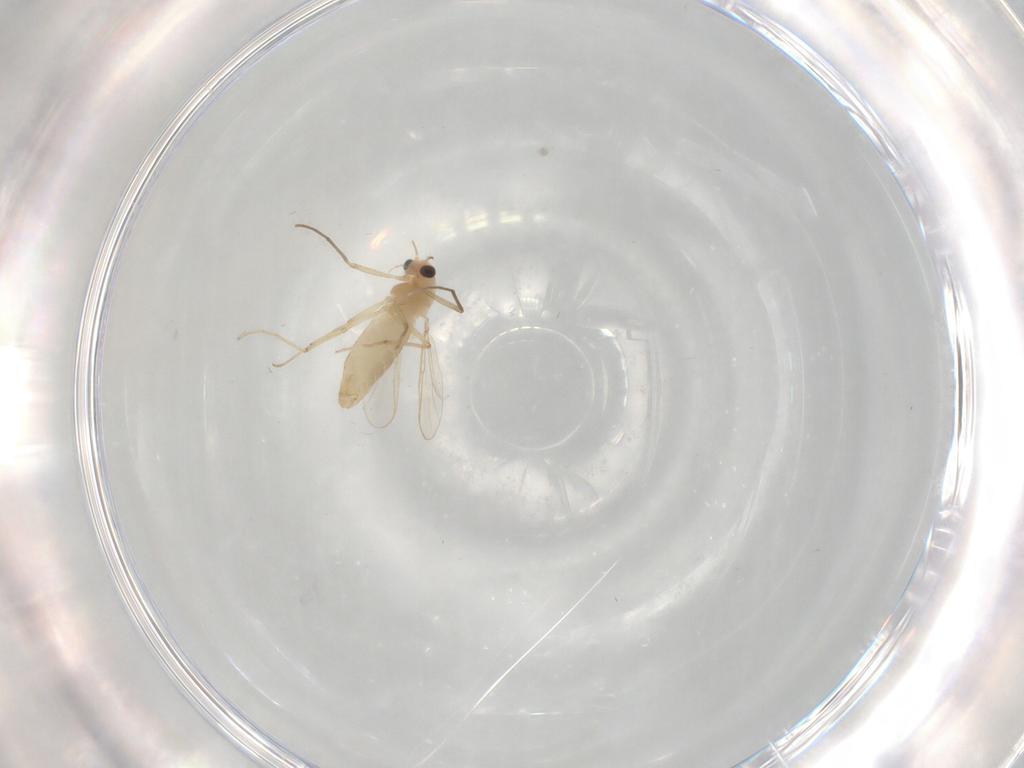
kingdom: Animalia
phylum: Arthropoda
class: Insecta
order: Diptera
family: Chironomidae
